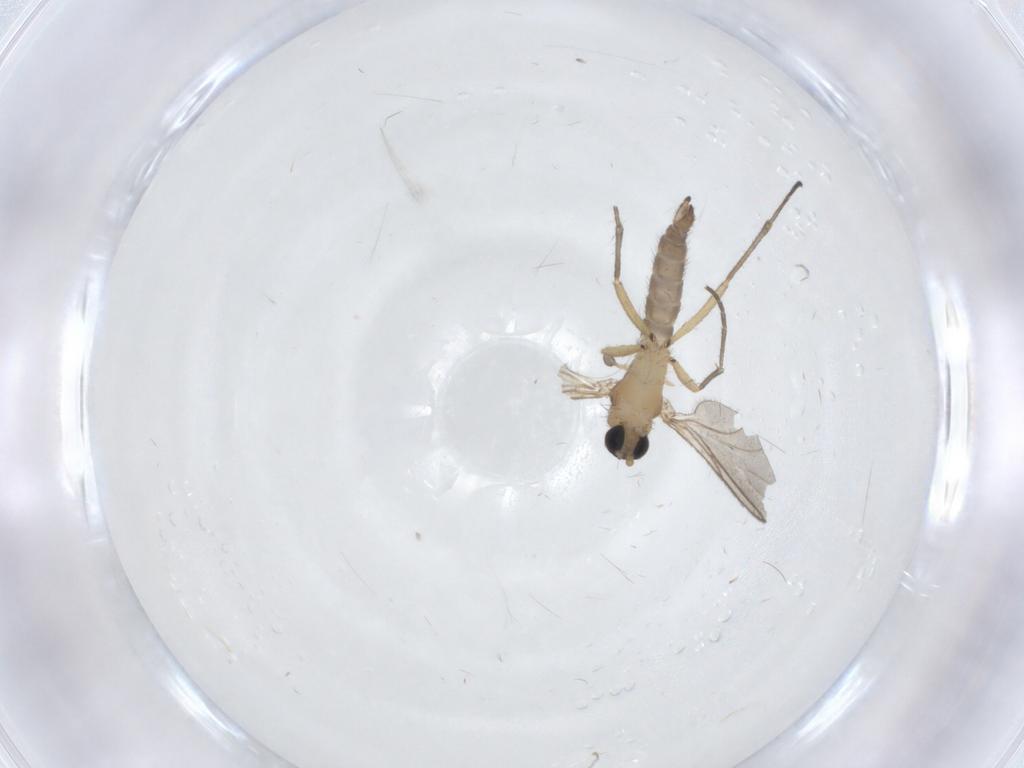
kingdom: Animalia
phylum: Arthropoda
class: Insecta
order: Diptera
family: Sciaridae
